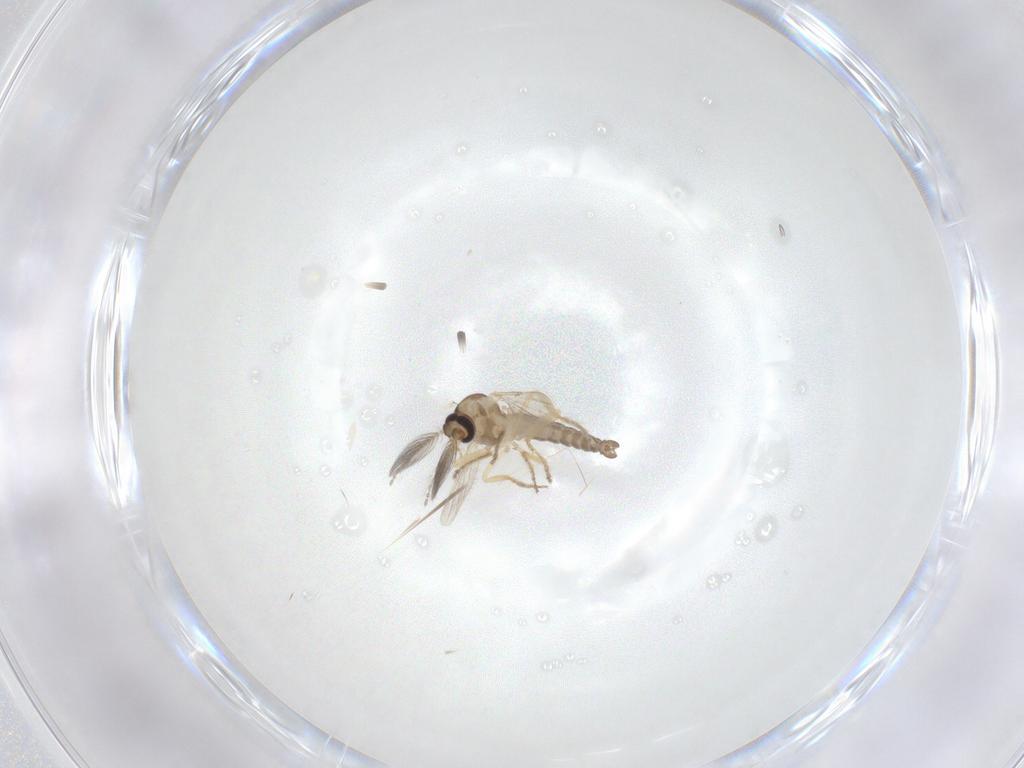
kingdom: Animalia
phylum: Arthropoda
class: Insecta
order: Diptera
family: Ceratopogonidae
